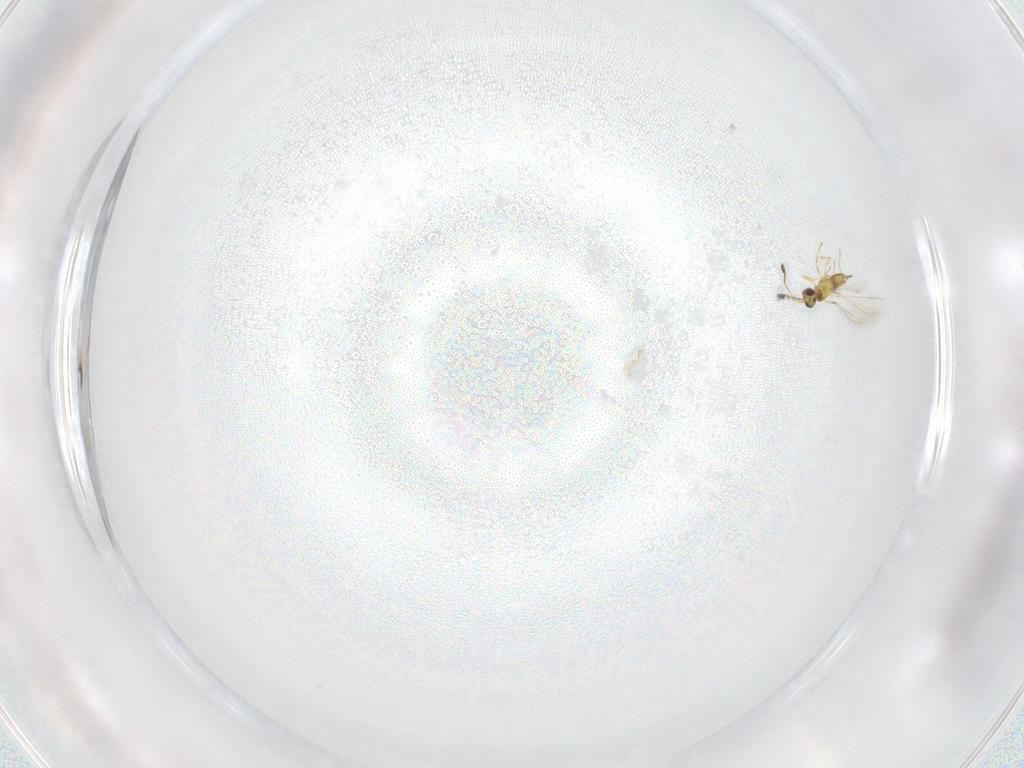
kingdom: Animalia
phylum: Arthropoda
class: Insecta
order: Hymenoptera
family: Mymaridae
